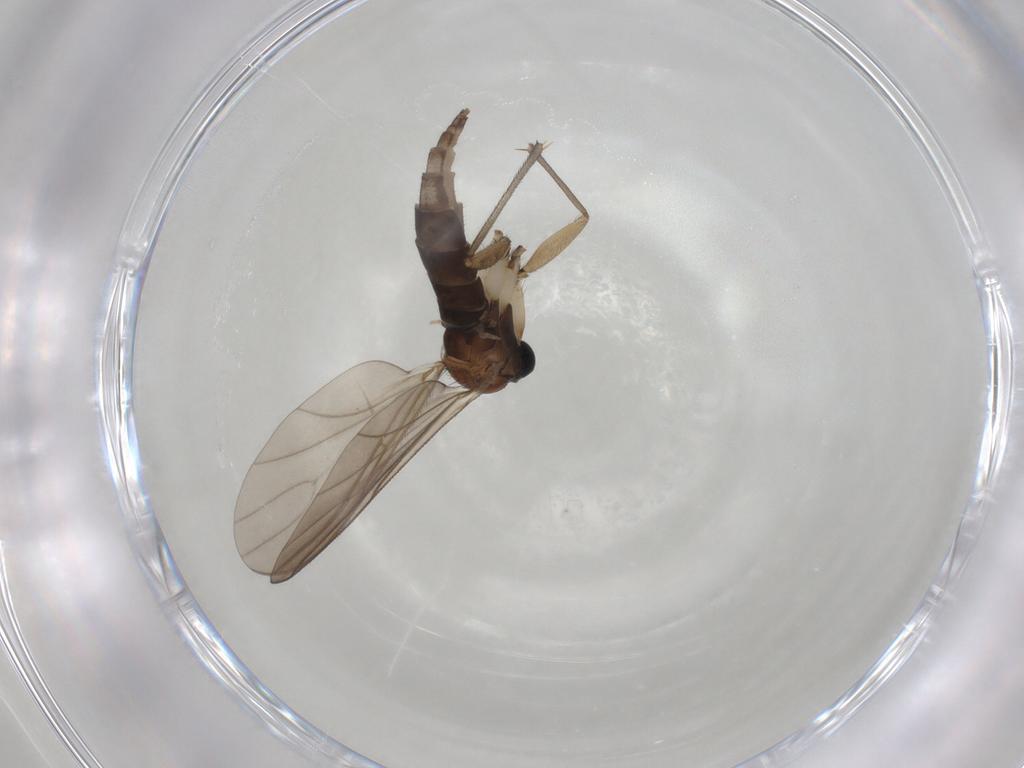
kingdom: Animalia
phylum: Arthropoda
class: Insecta
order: Diptera
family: Sciaridae
